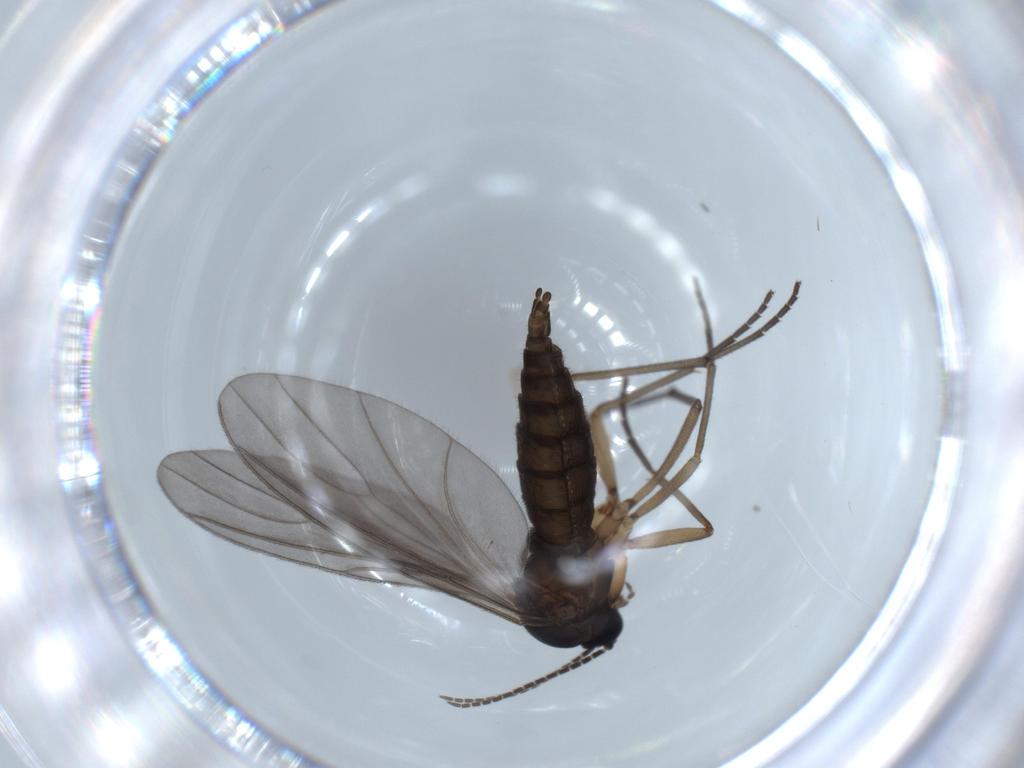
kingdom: Animalia
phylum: Arthropoda
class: Insecta
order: Diptera
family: Sciaridae
